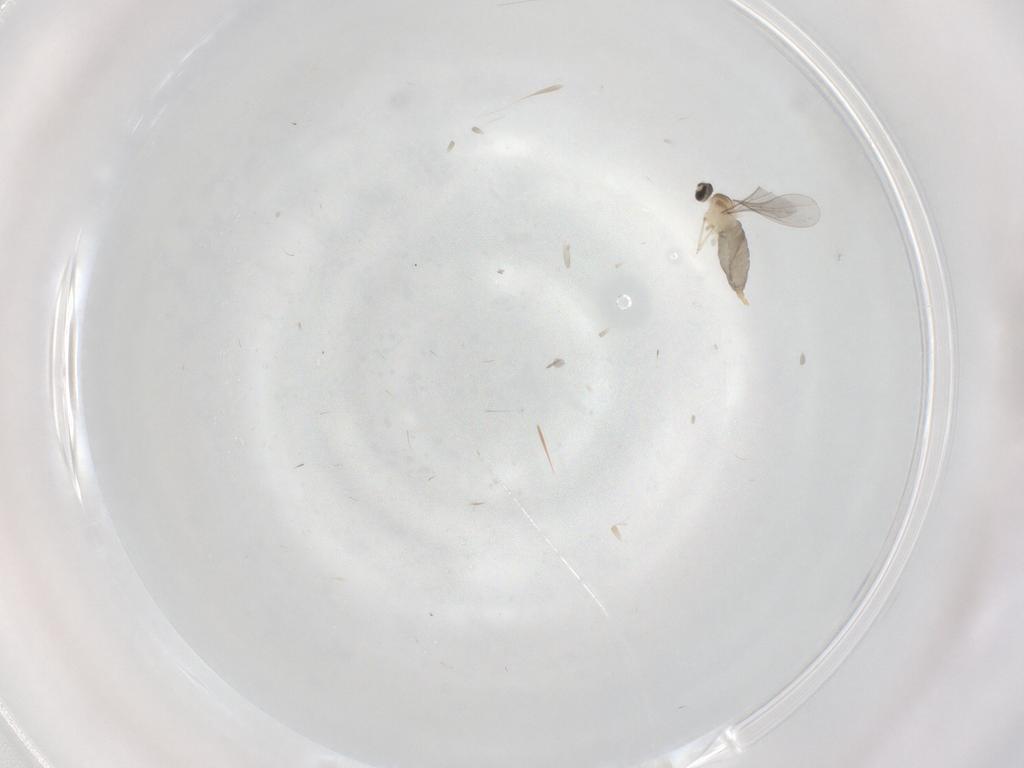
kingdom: Animalia
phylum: Arthropoda
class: Insecta
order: Diptera
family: Cecidomyiidae
